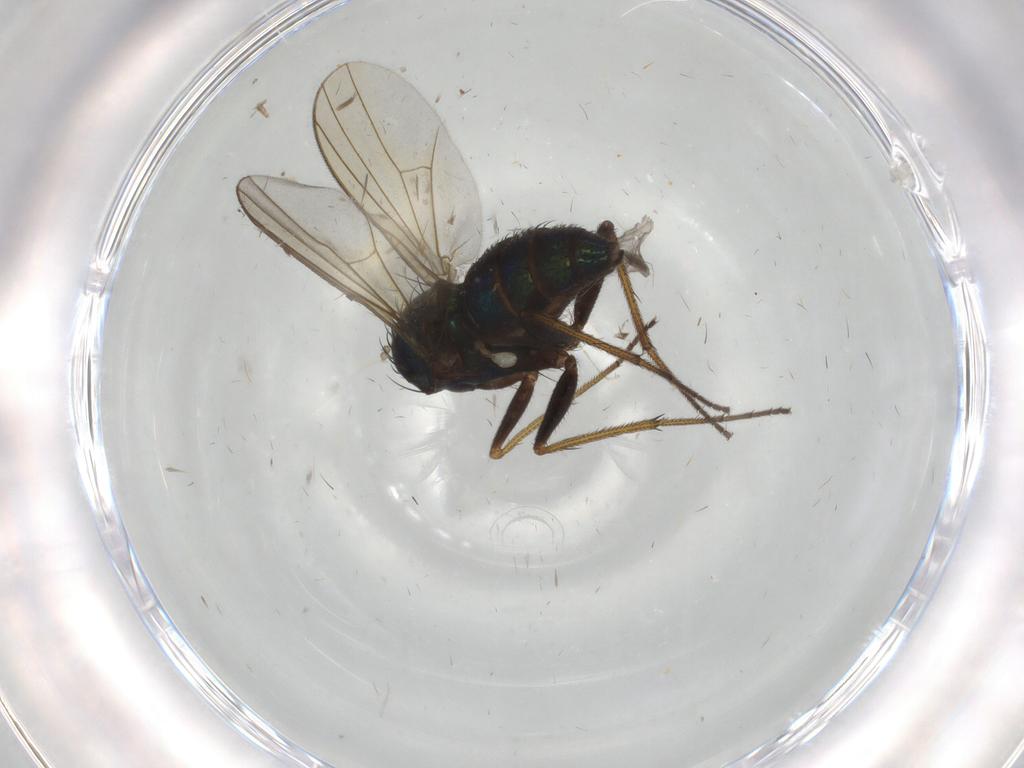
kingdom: Animalia
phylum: Arthropoda
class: Insecta
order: Diptera
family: Dolichopodidae
